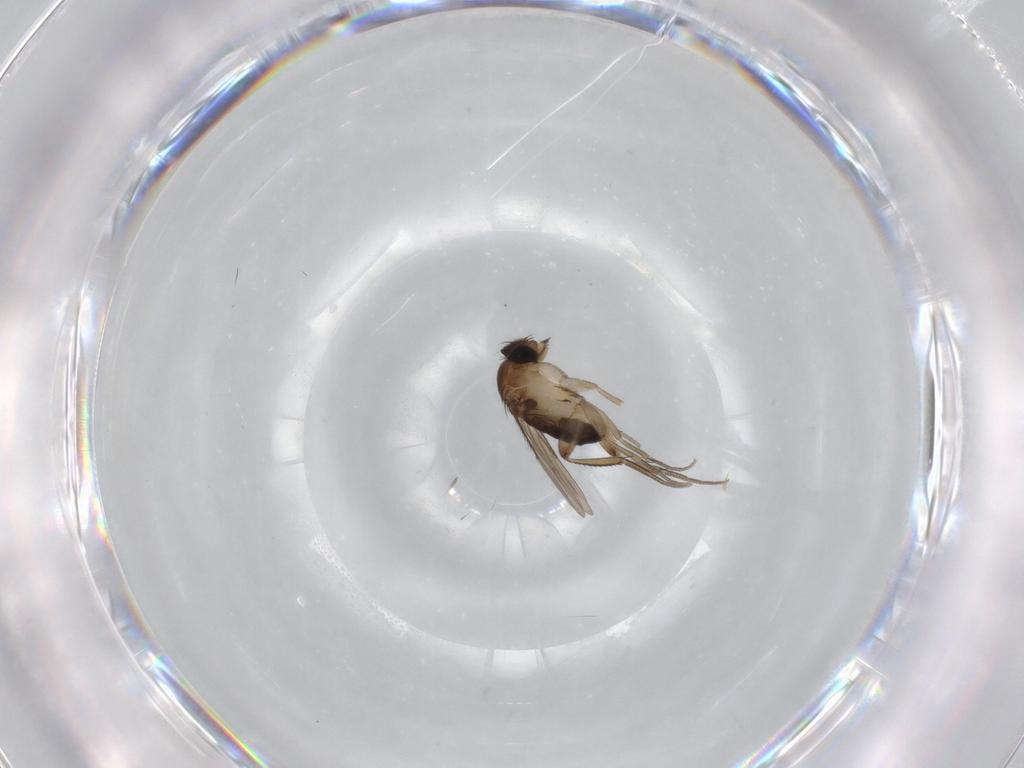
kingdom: Animalia
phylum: Arthropoda
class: Insecta
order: Diptera
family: Phoridae
